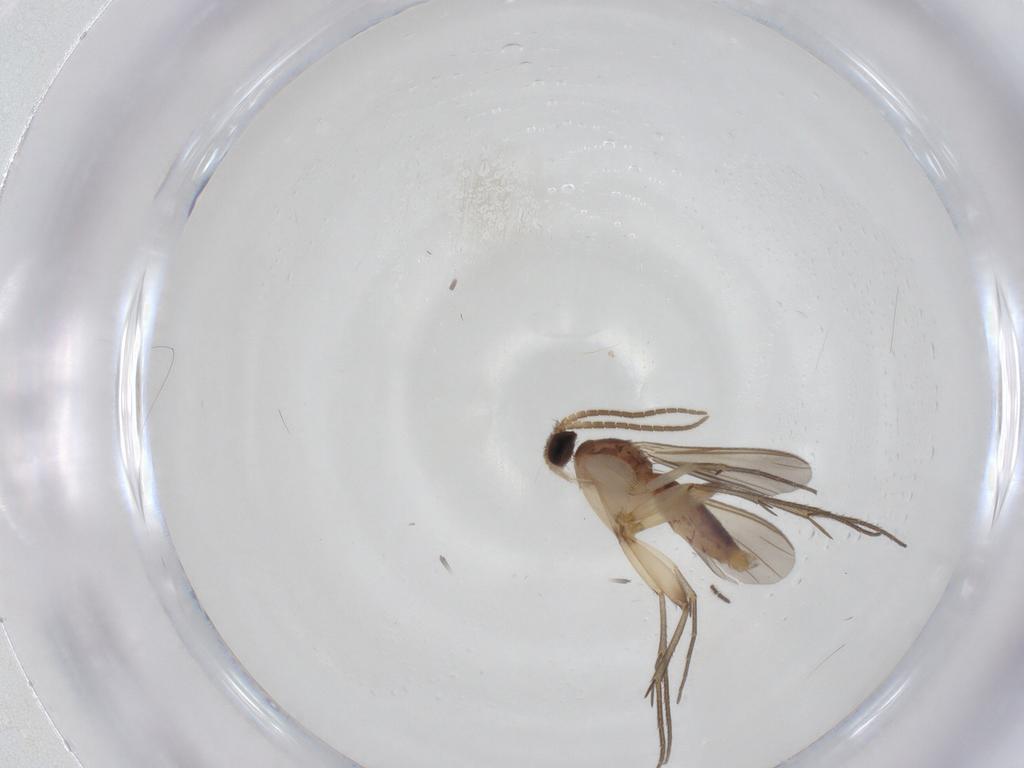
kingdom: Animalia
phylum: Arthropoda
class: Insecta
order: Diptera
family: Mycetophilidae
